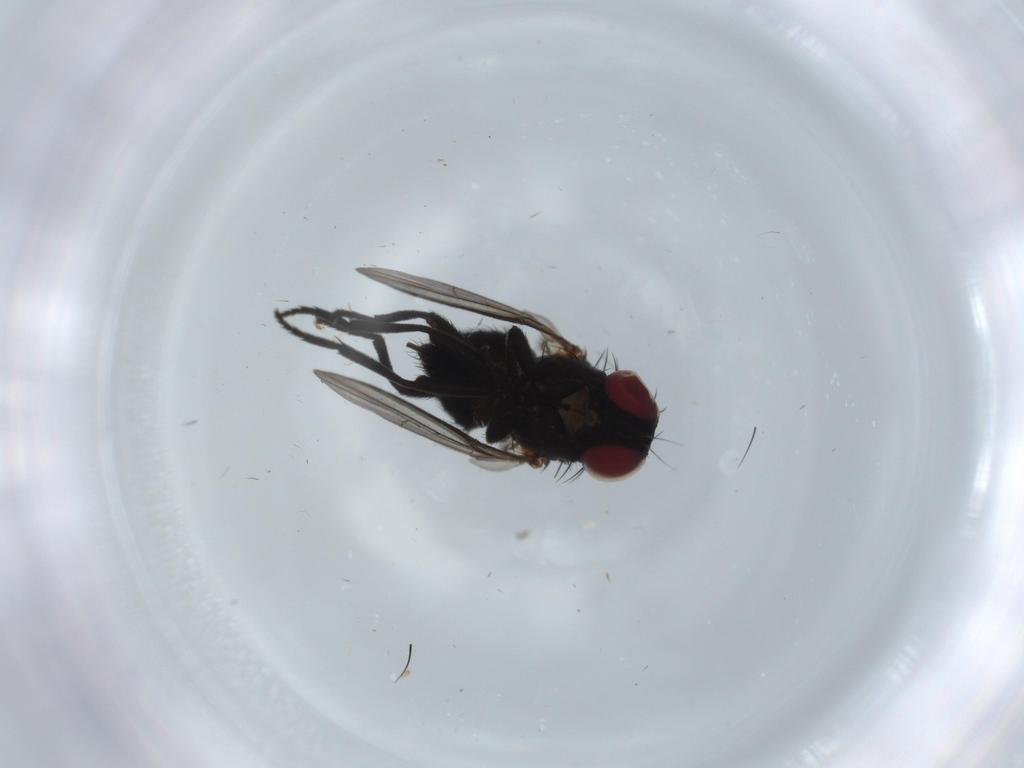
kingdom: Animalia
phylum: Arthropoda
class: Insecta
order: Diptera
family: Agromyzidae
